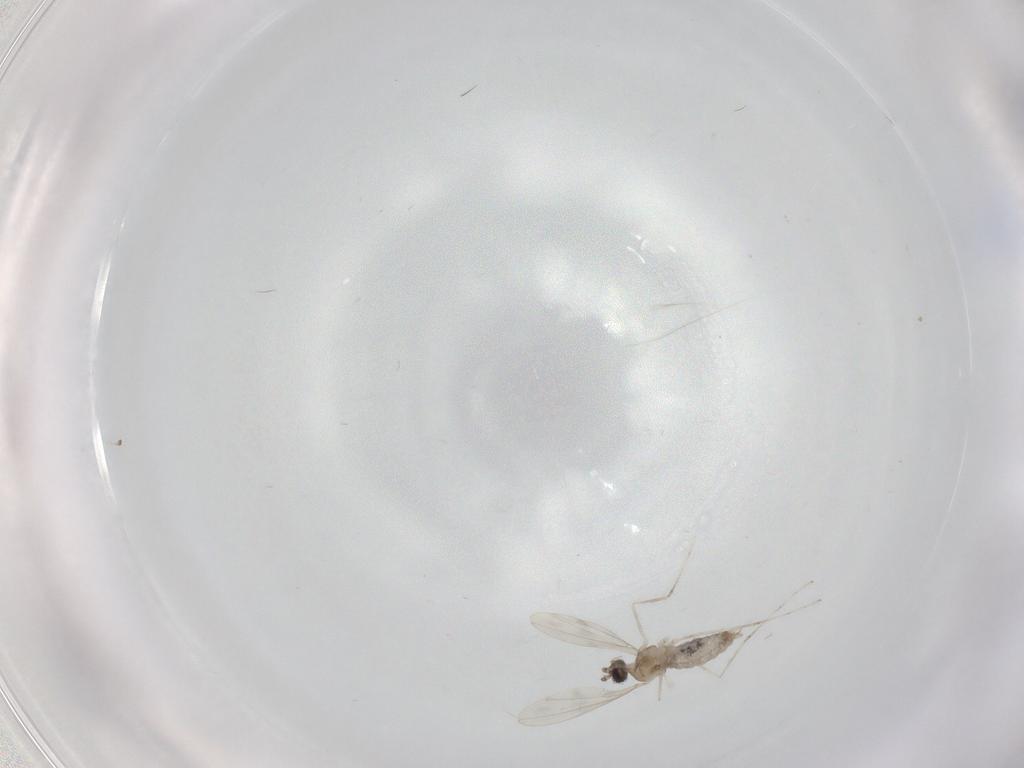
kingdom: Animalia
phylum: Arthropoda
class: Insecta
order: Diptera
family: Cecidomyiidae
